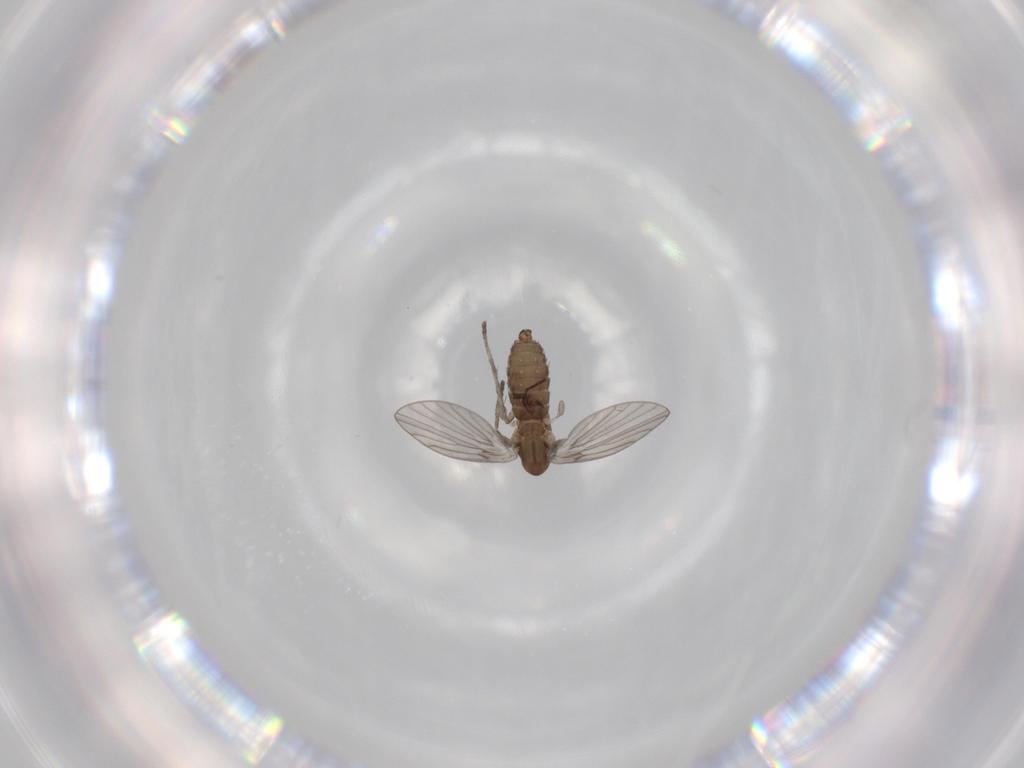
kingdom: Animalia
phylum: Arthropoda
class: Insecta
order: Diptera
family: Psychodidae
